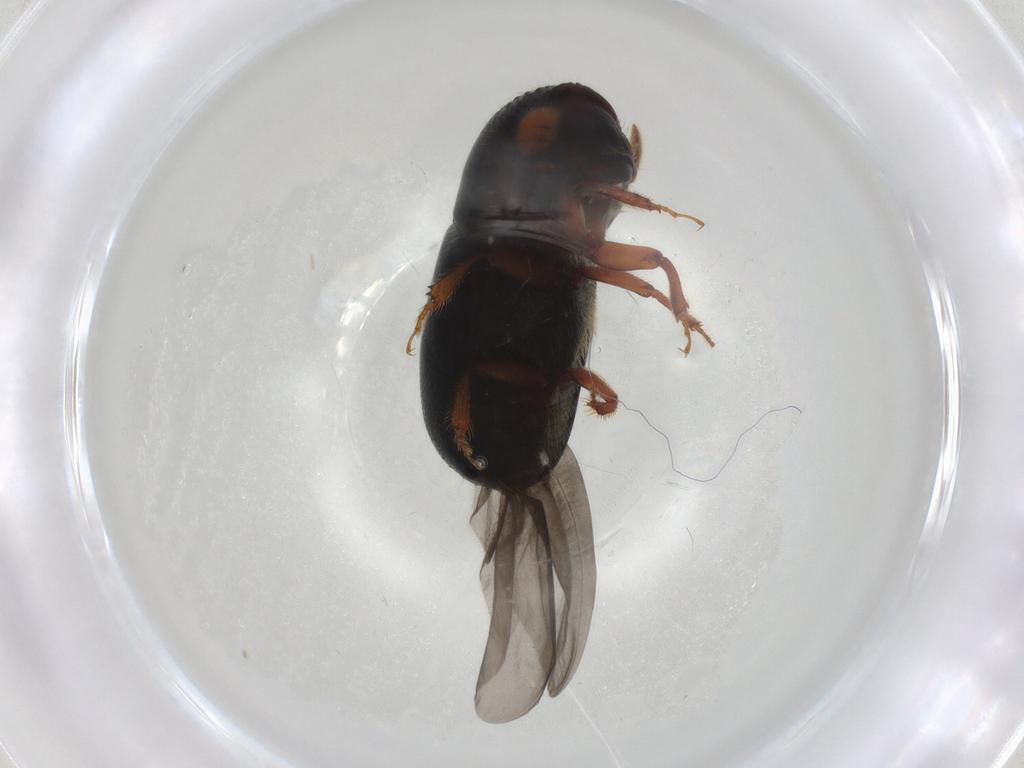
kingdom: Animalia
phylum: Arthropoda
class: Insecta
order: Coleoptera
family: Curculionidae
